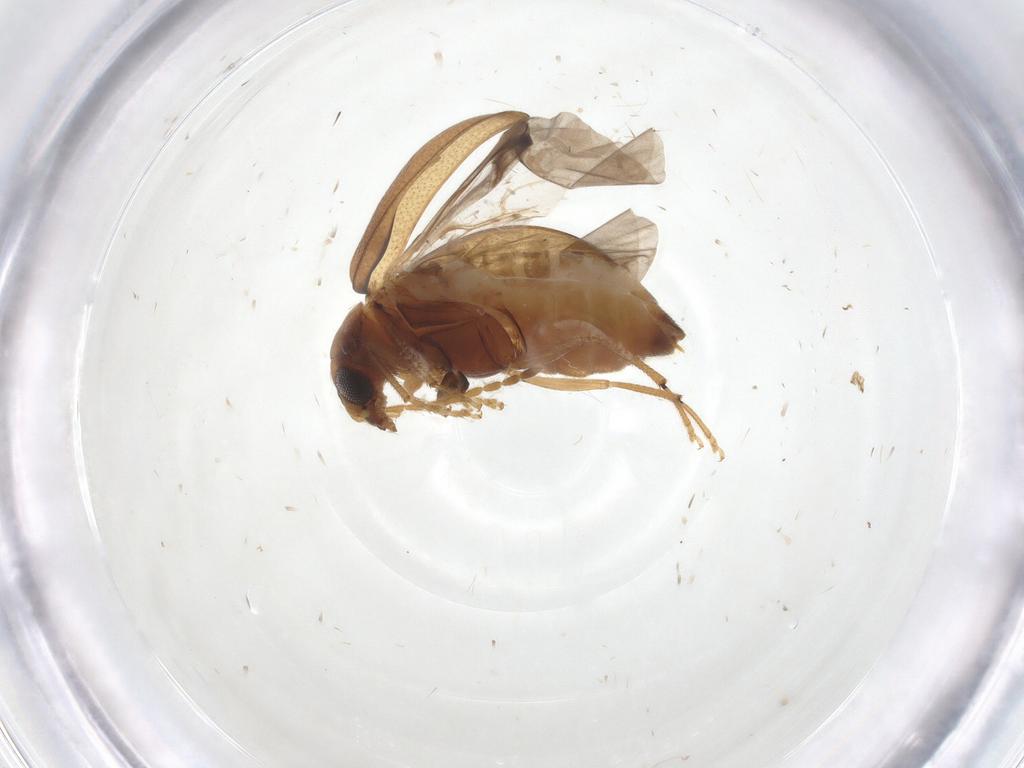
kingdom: Animalia
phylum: Arthropoda
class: Insecta
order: Coleoptera
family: Chrysomelidae
